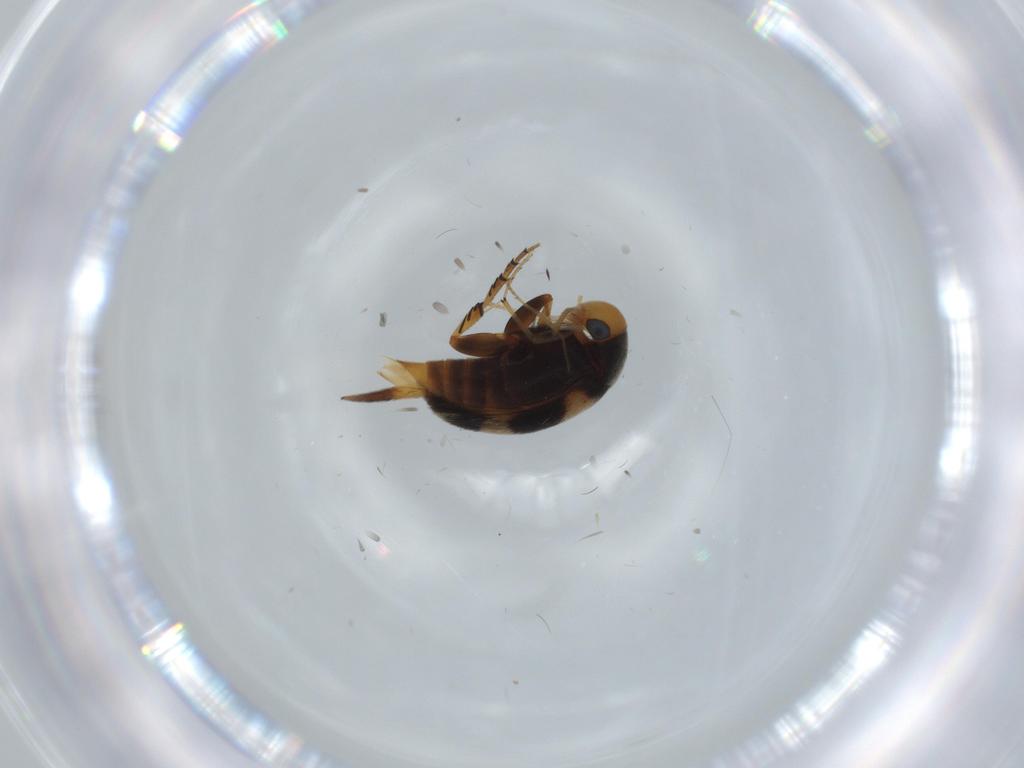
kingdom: Animalia
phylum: Arthropoda
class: Insecta
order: Coleoptera
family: Mordellidae
